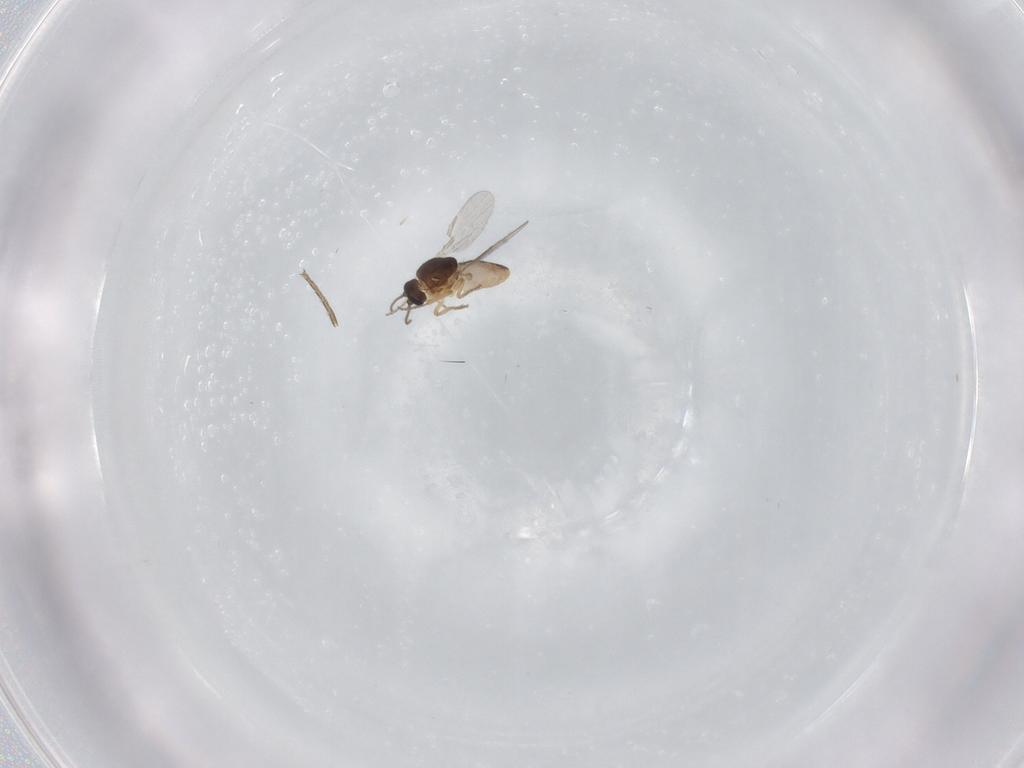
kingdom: Animalia
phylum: Arthropoda
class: Insecta
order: Diptera
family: Phoridae
